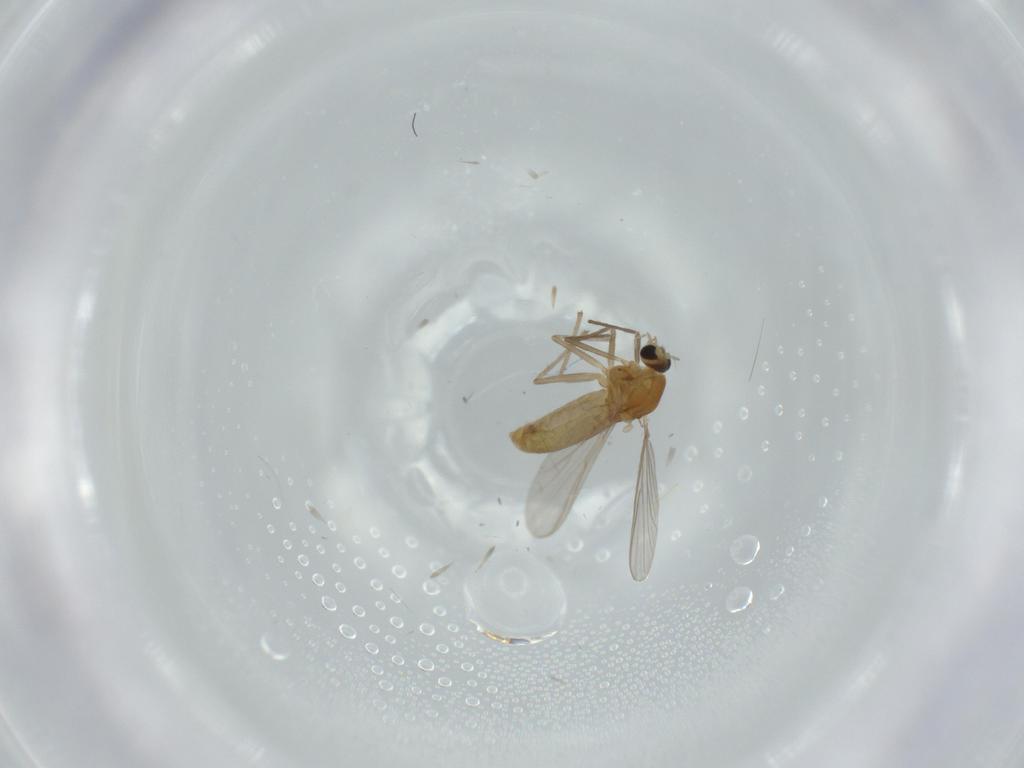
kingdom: Animalia
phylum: Arthropoda
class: Insecta
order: Diptera
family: Chironomidae
